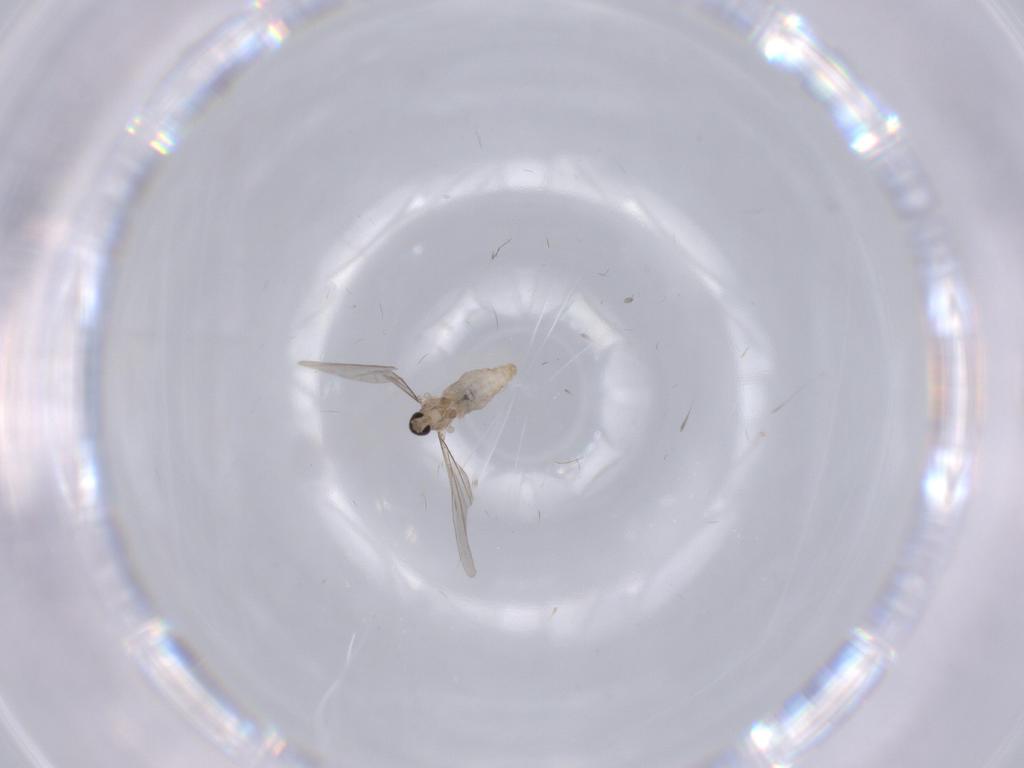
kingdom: Animalia
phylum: Arthropoda
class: Insecta
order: Diptera
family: Cecidomyiidae
